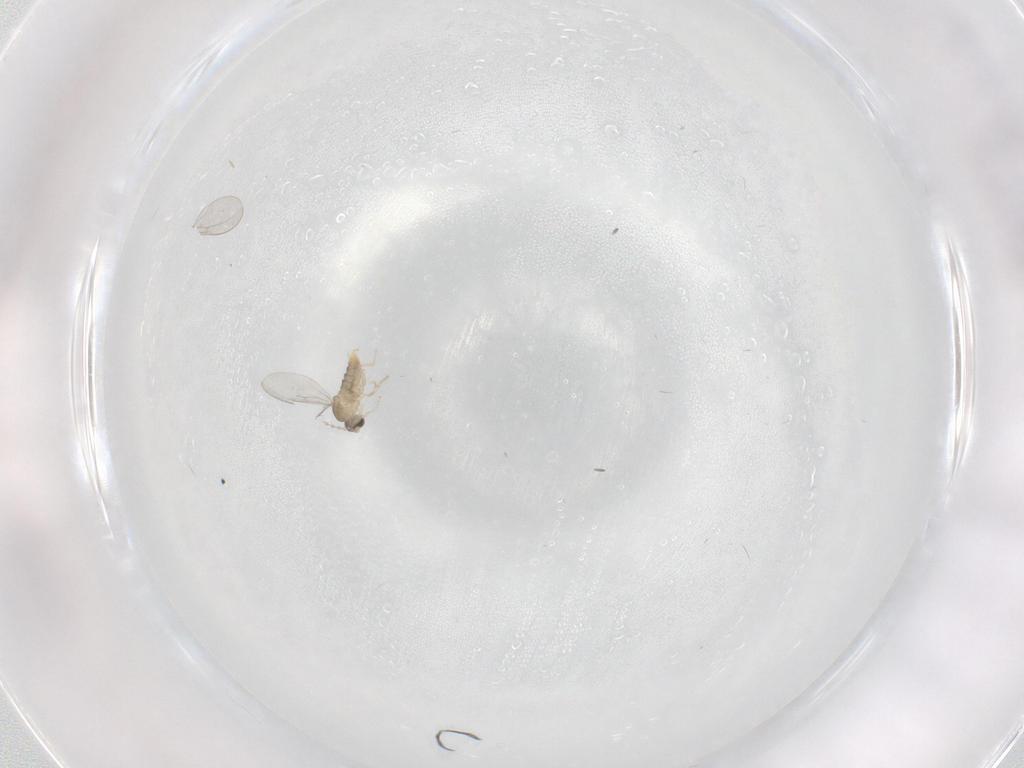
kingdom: Animalia
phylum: Arthropoda
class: Insecta
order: Diptera
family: Cecidomyiidae
